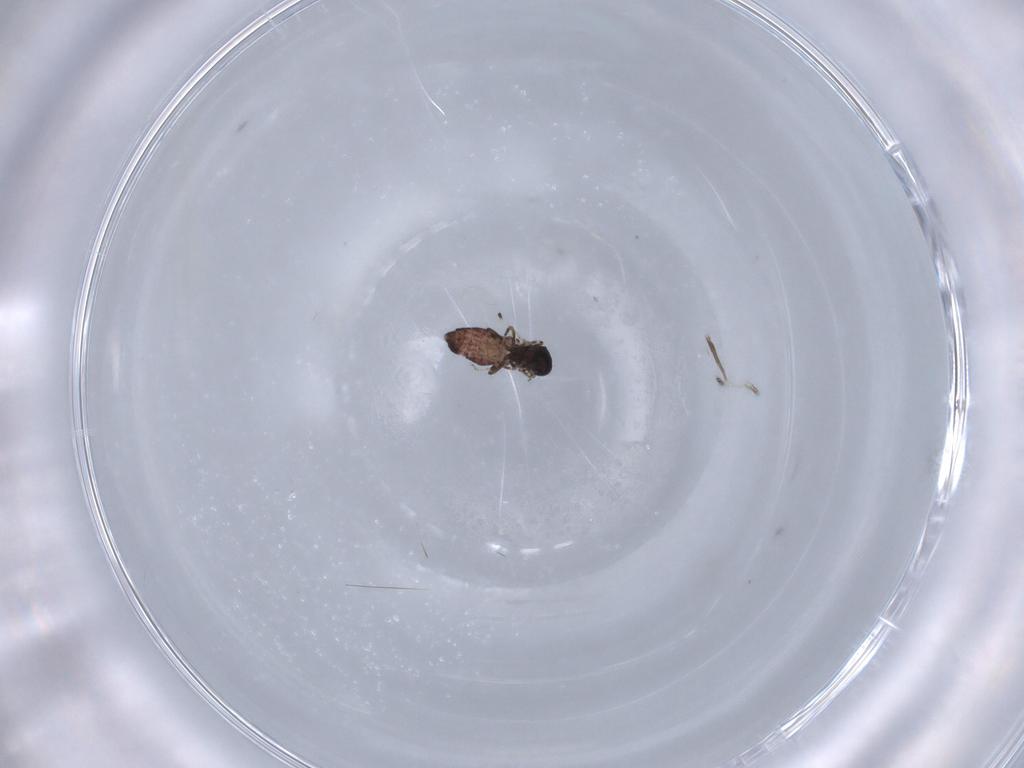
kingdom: Animalia
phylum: Arthropoda
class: Insecta
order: Diptera
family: Ceratopogonidae
